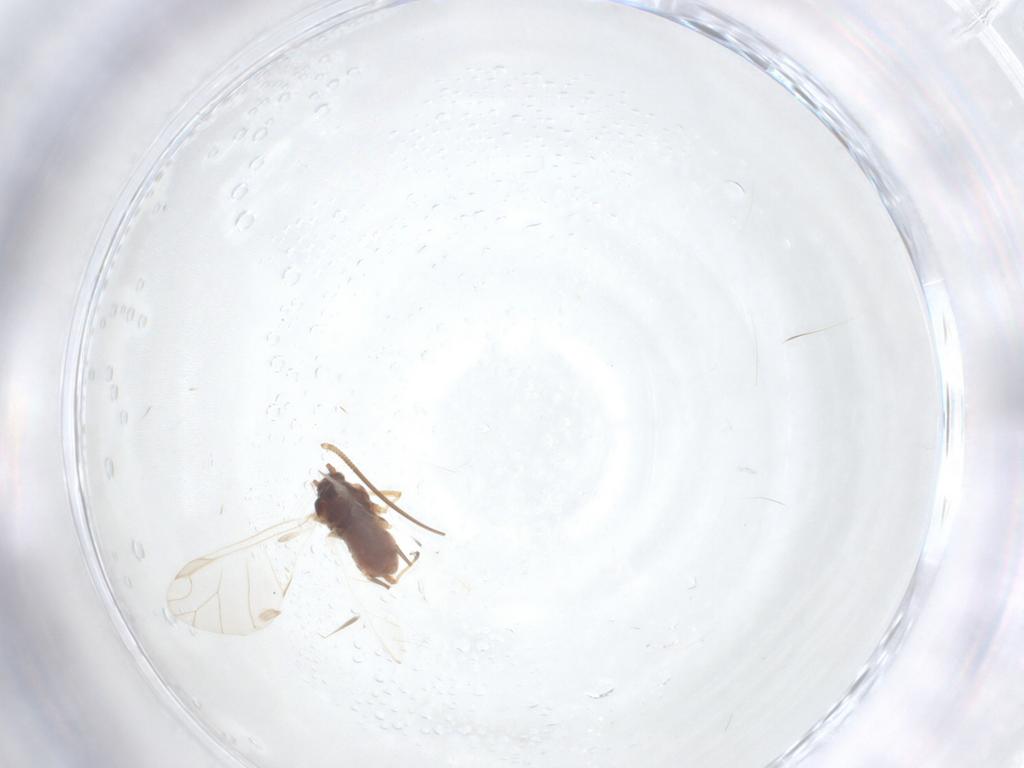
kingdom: Animalia
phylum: Arthropoda
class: Insecta
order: Hemiptera
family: Aphididae
